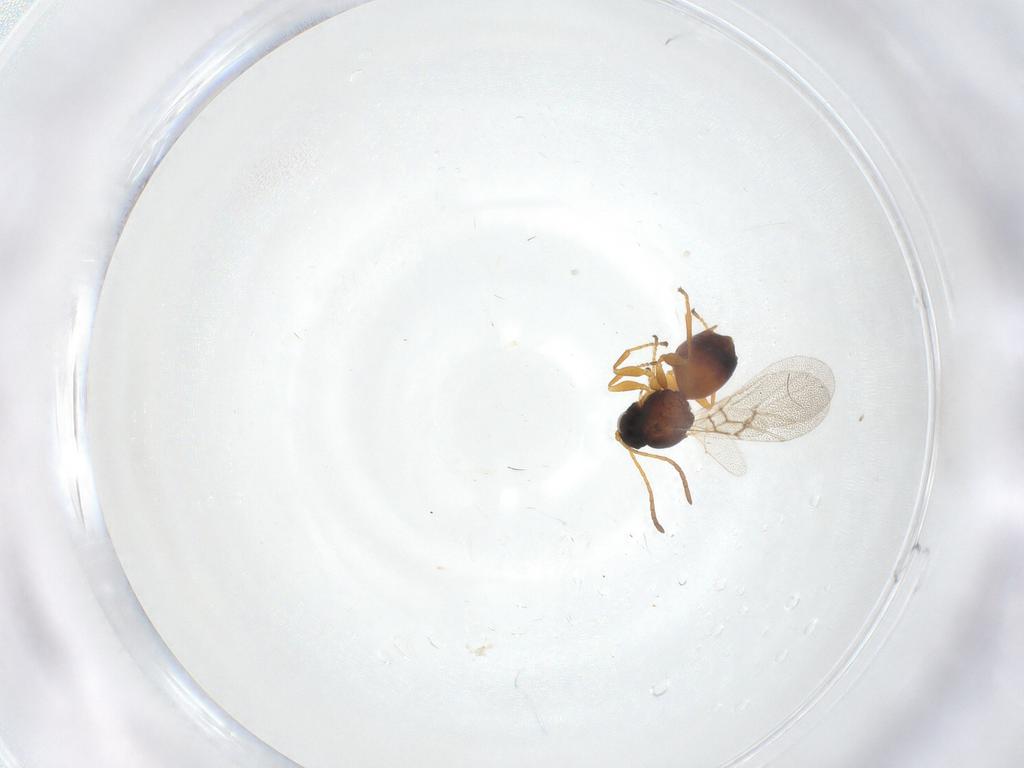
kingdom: Animalia
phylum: Arthropoda
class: Insecta
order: Hymenoptera
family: Cynipidae
